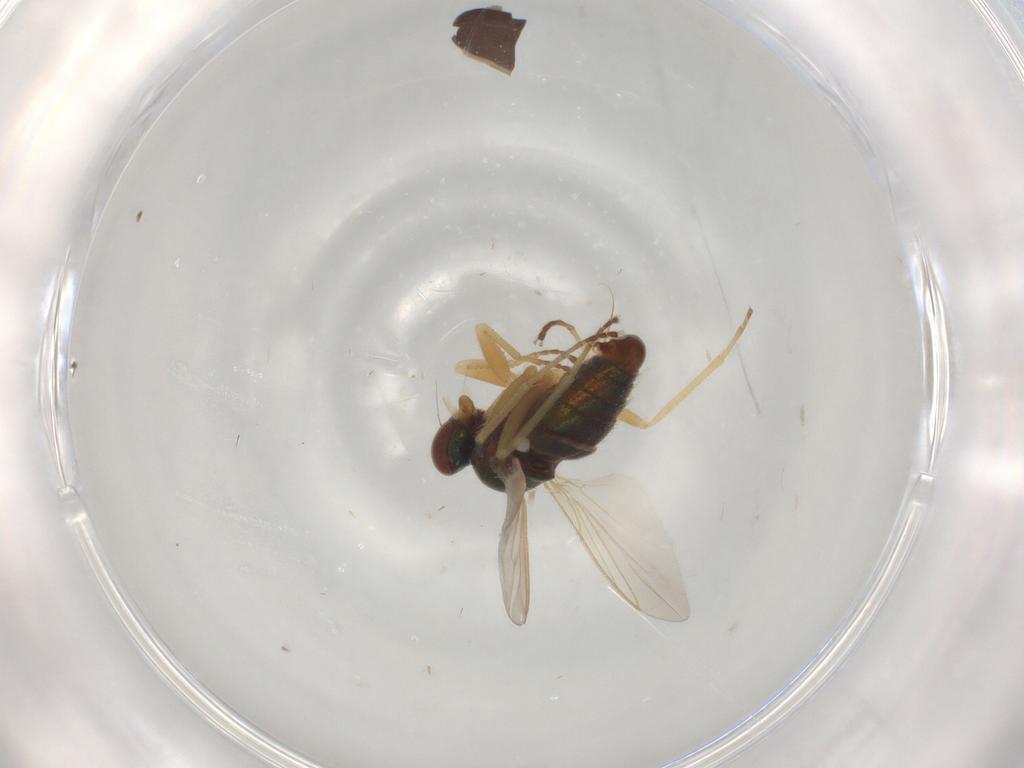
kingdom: Animalia
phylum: Arthropoda
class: Insecta
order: Diptera
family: Dolichopodidae
